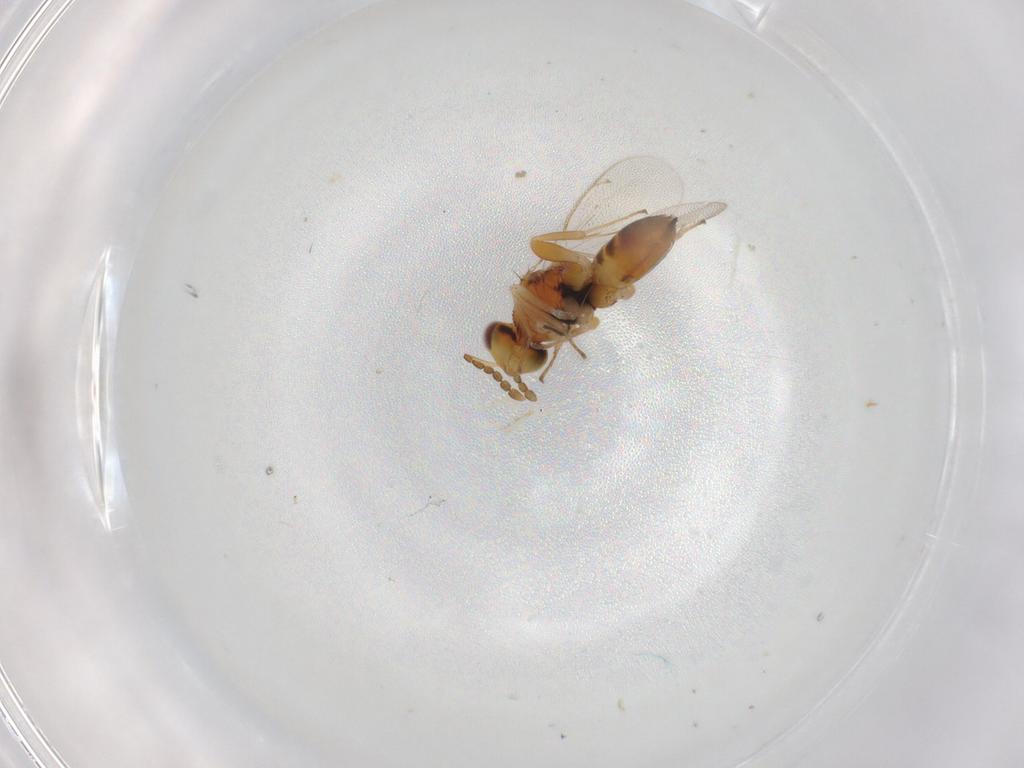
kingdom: Animalia
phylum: Arthropoda
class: Insecta
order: Hymenoptera
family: Eulophidae
